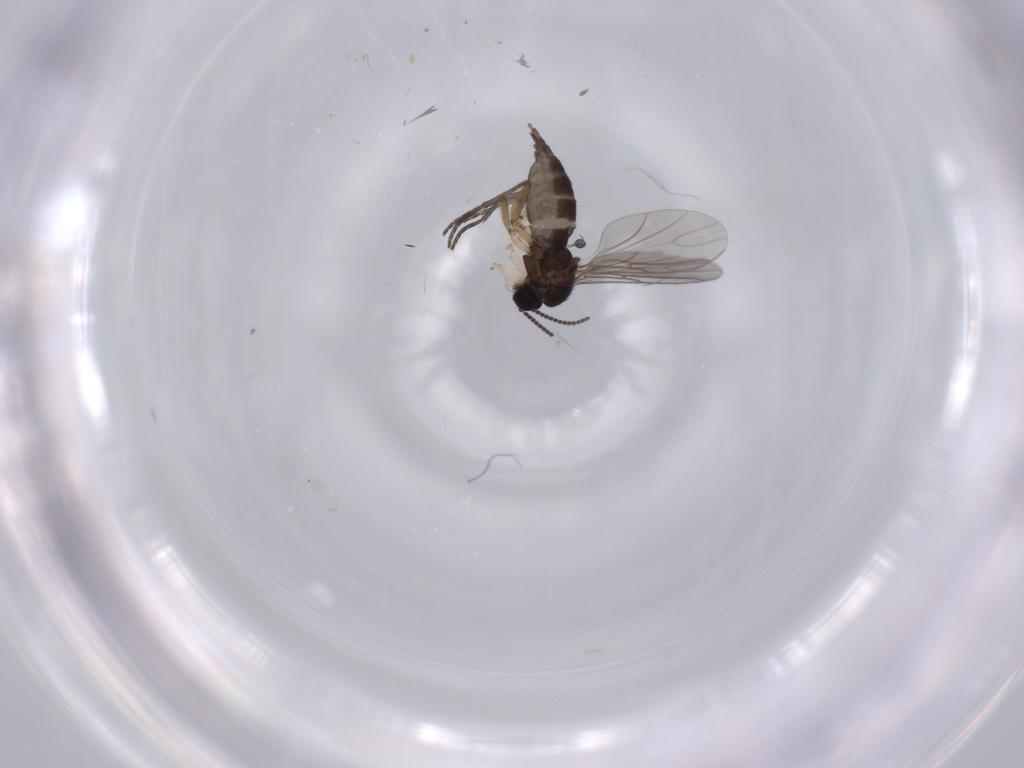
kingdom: Animalia
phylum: Arthropoda
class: Insecta
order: Diptera
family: Sciaridae
